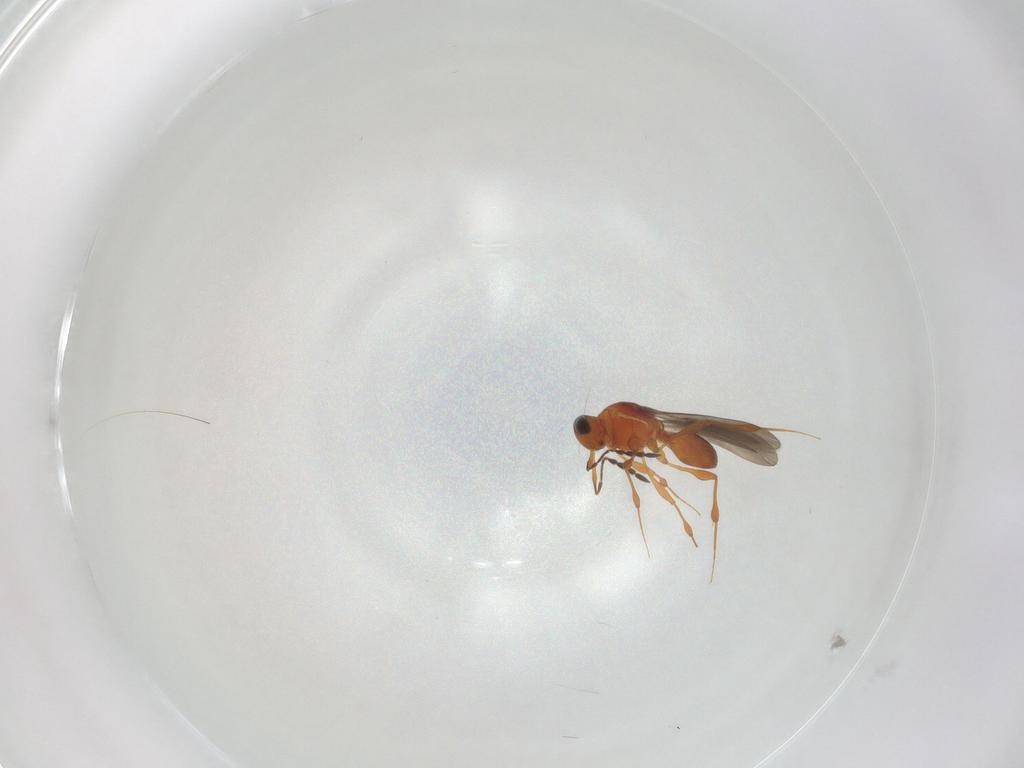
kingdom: Animalia
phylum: Arthropoda
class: Insecta
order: Hymenoptera
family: Platygastridae
